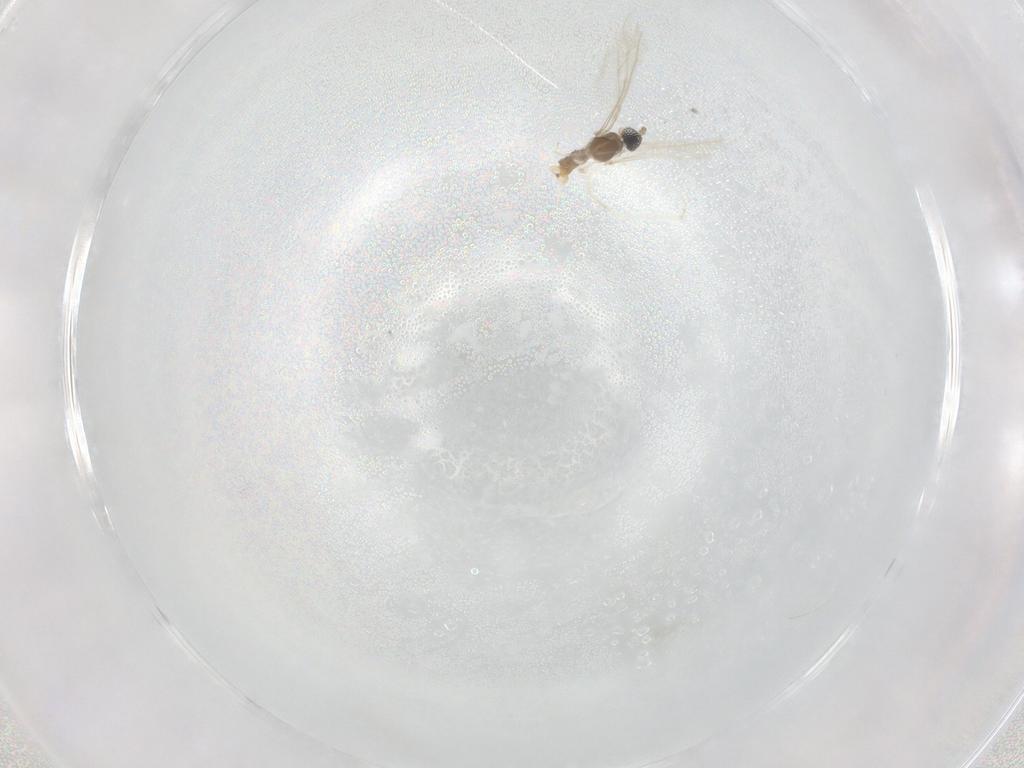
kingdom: Animalia
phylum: Arthropoda
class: Insecta
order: Diptera
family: Cecidomyiidae
